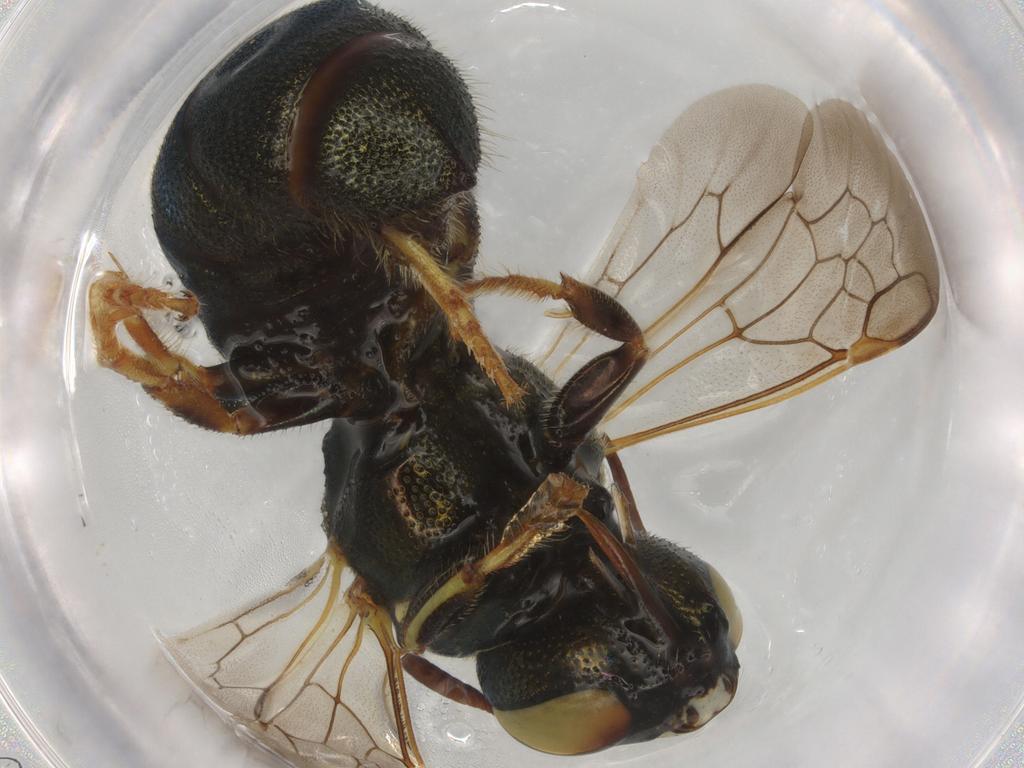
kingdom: Animalia
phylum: Arthropoda
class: Insecta
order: Hymenoptera
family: Apidae
